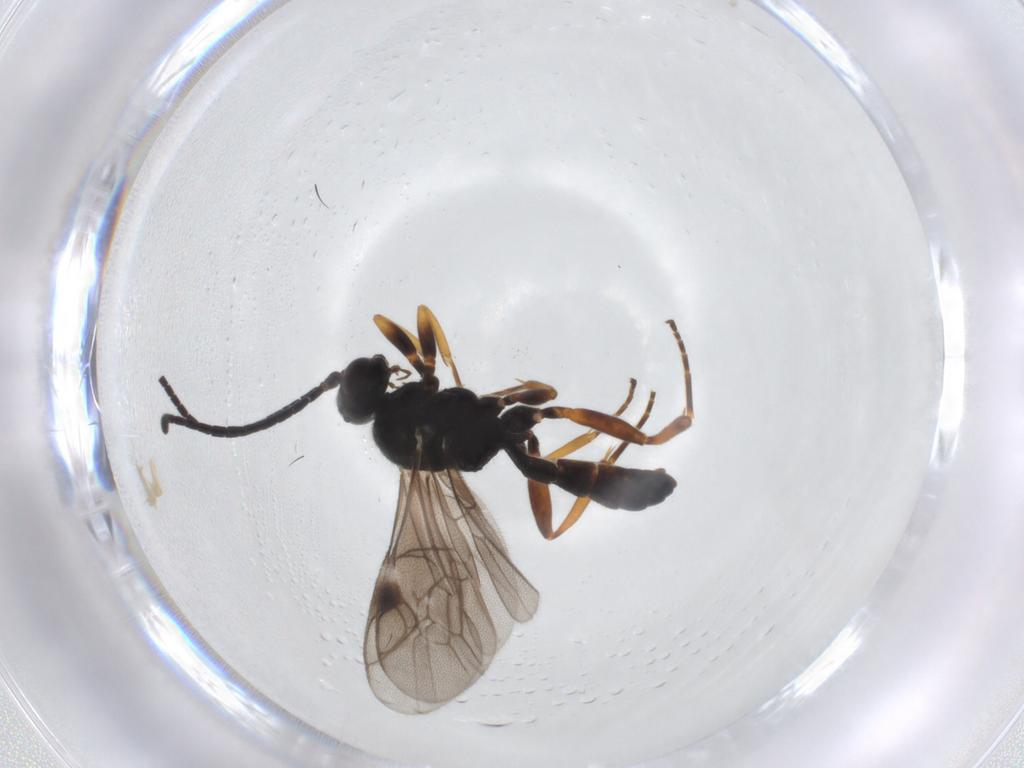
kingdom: Animalia
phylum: Arthropoda
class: Insecta
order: Hymenoptera
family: Ichneumonidae
